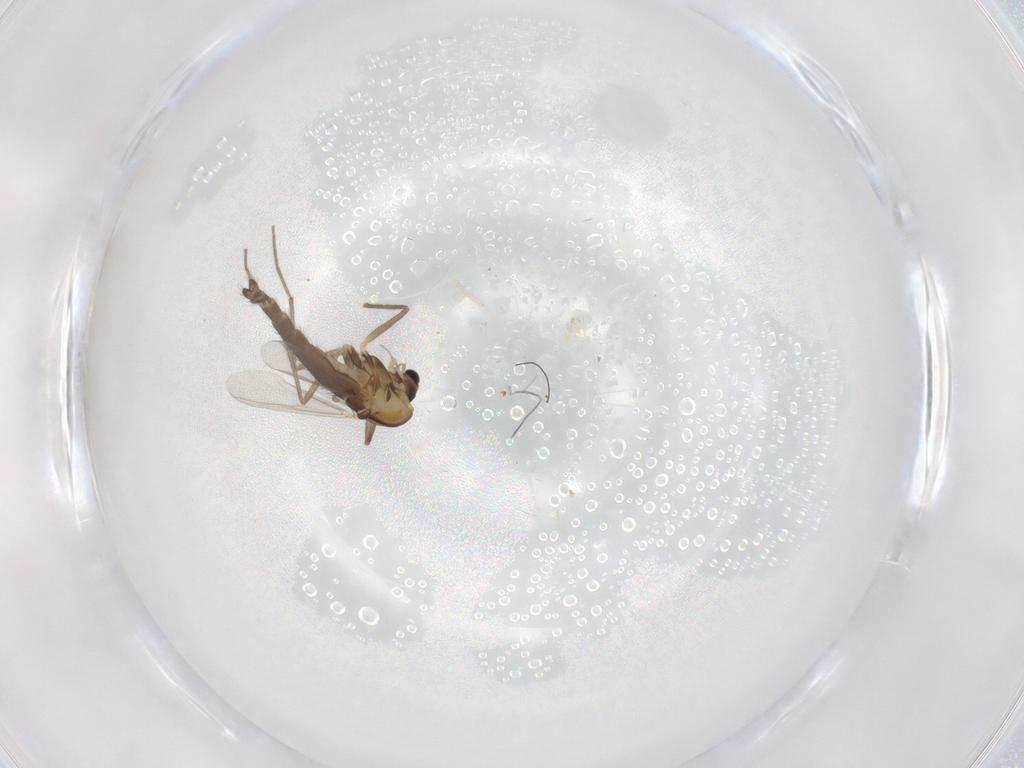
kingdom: Animalia
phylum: Arthropoda
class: Insecta
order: Diptera
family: Chironomidae
